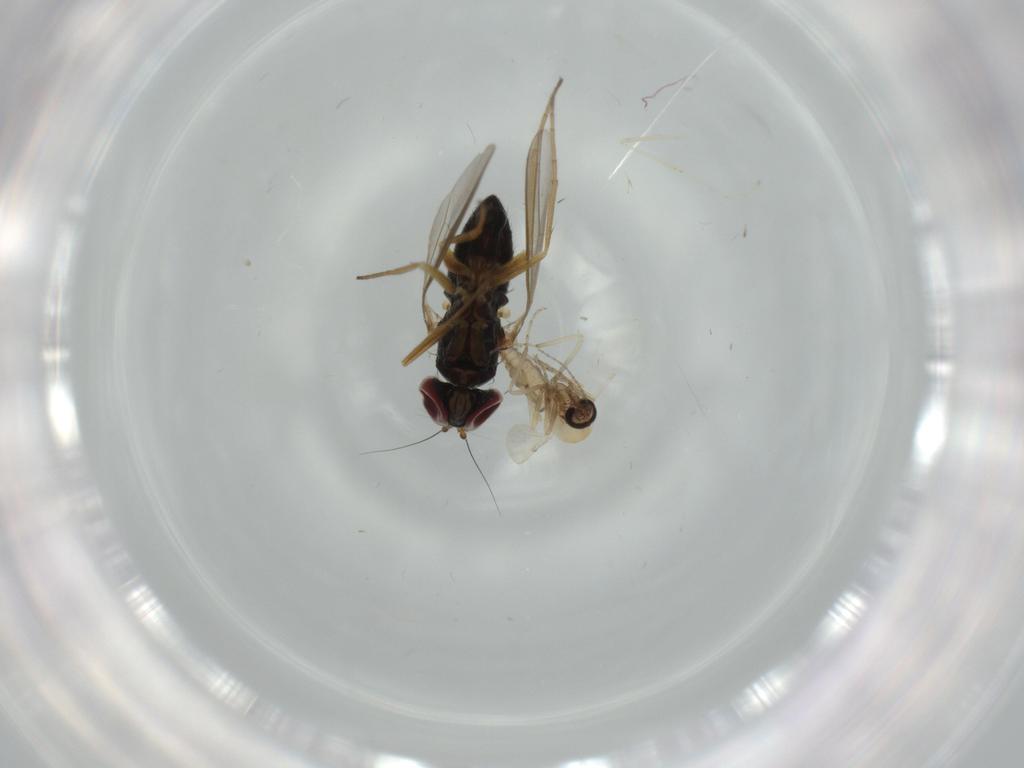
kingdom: Animalia
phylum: Arthropoda
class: Insecta
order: Diptera
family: Dolichopodidae
